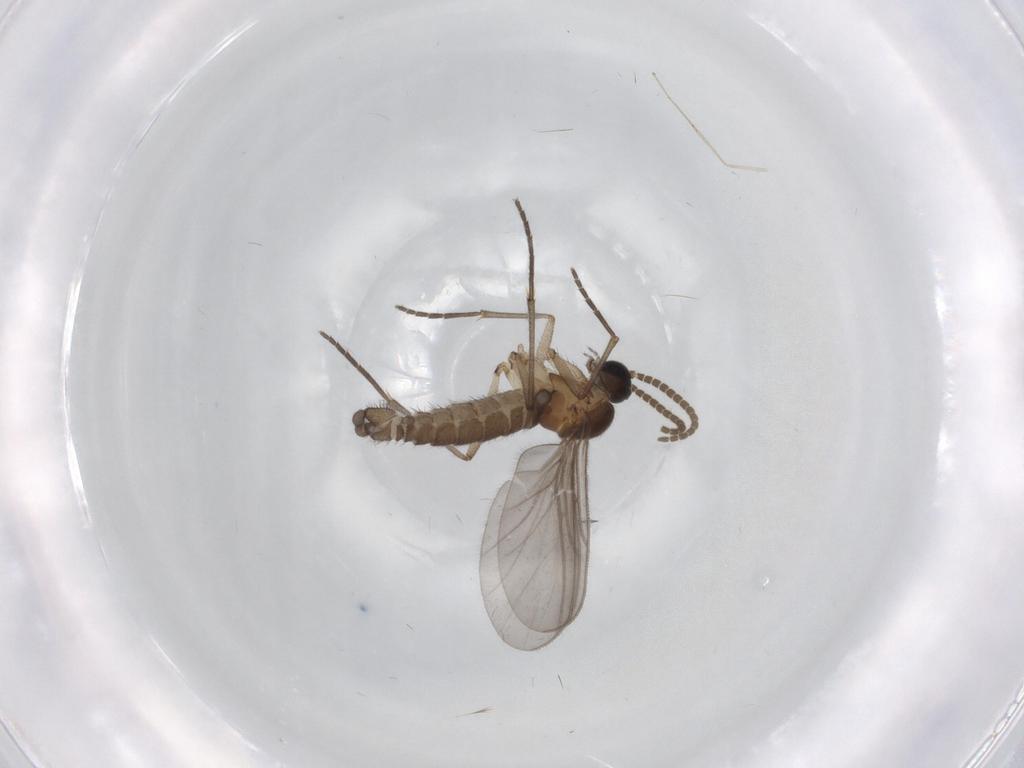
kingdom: Animalia
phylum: Arthropoda
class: Insecta
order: Diptera
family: Limoniidae
